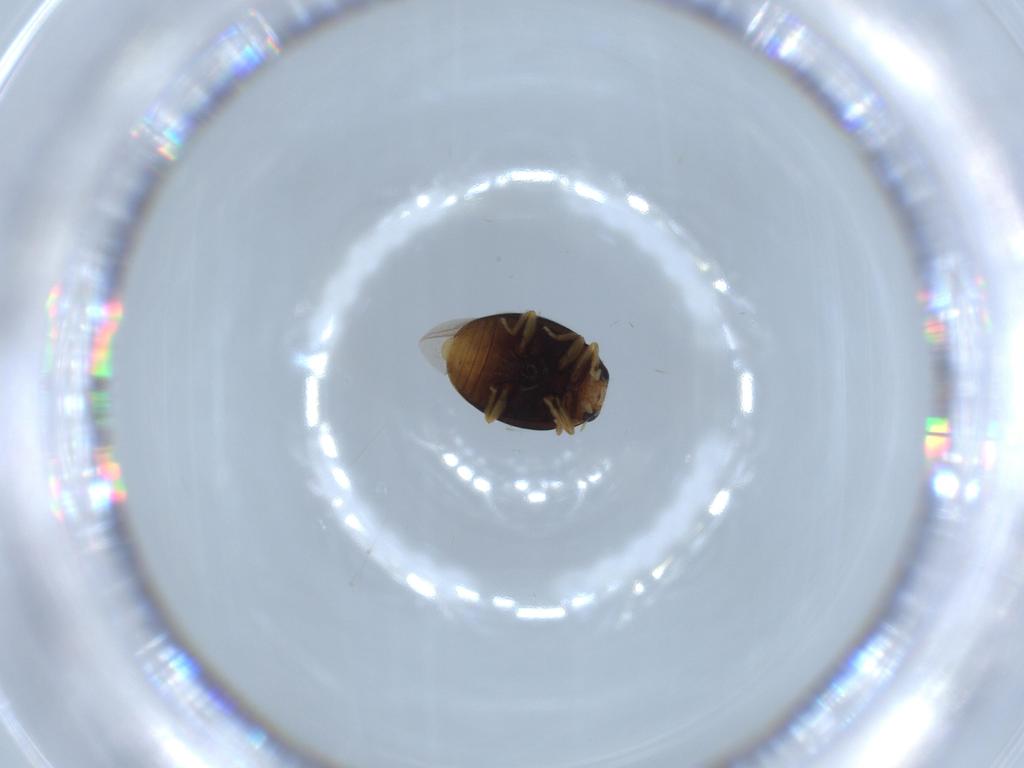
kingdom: Animalia
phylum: Arthropoda
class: Insecta
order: Coleoptera
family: Coccinellidae
